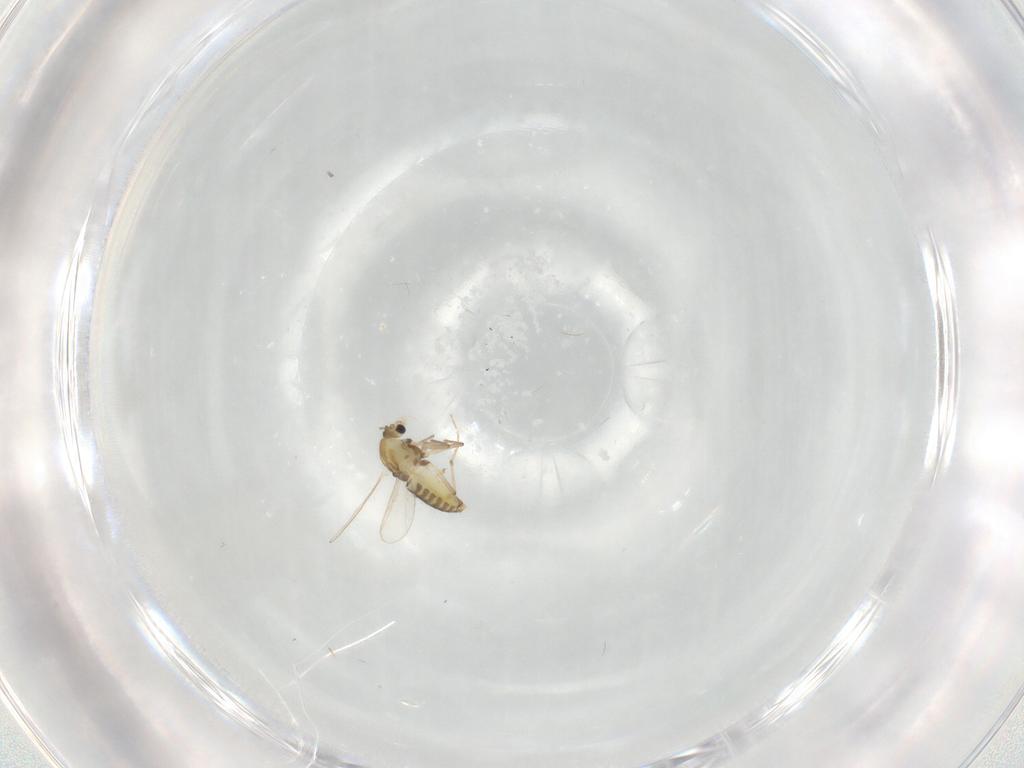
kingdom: Animalia
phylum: Arthropoda
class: Insecta
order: Diptera
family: Chironomidae
